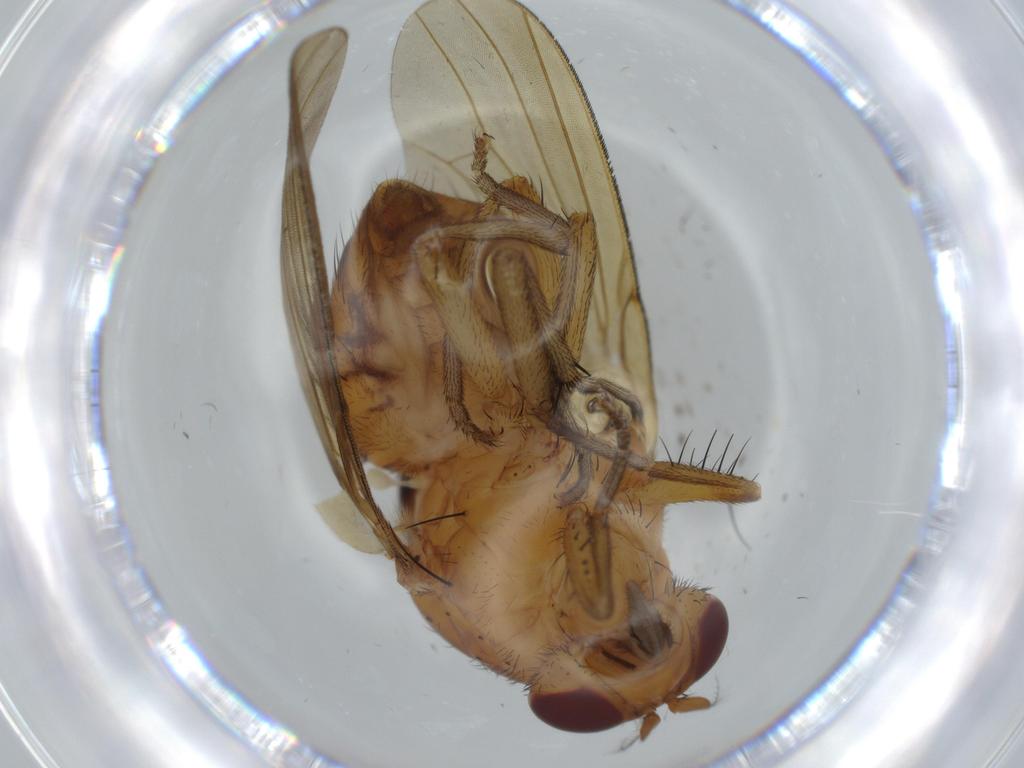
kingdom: Animalia
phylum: Arthropoda
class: Insecta
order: Diptera
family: Lauxaniidae
